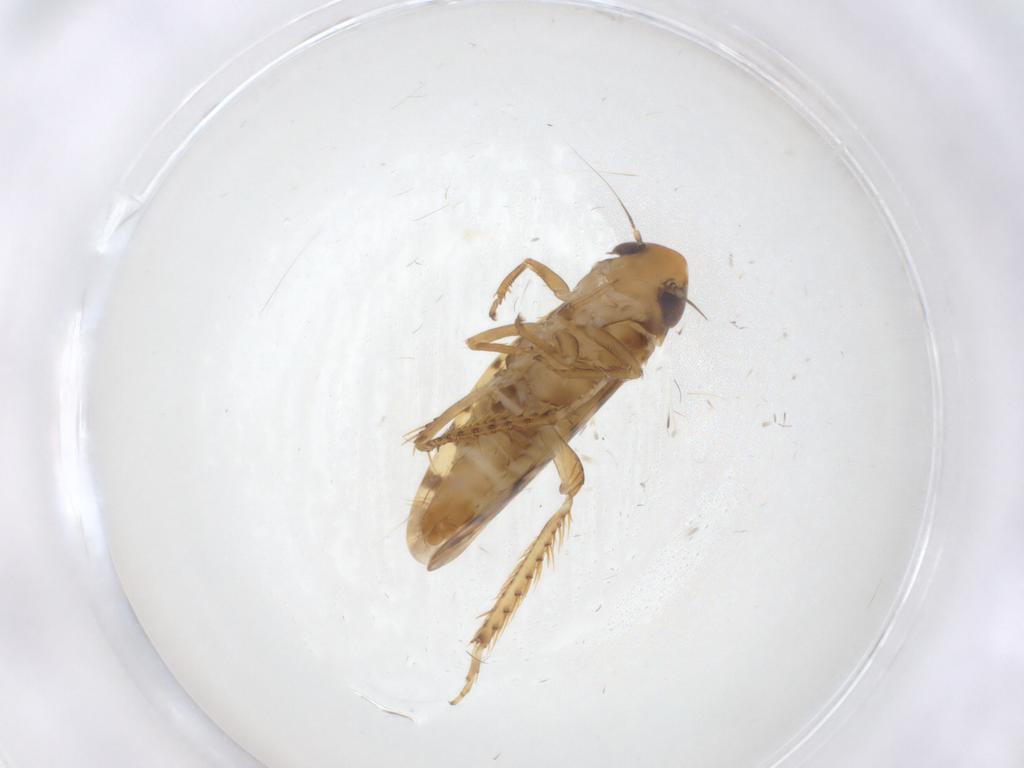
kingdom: Animalia
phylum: Arthropoda
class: Insecta
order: Hemiptera
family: Cicadellidae
